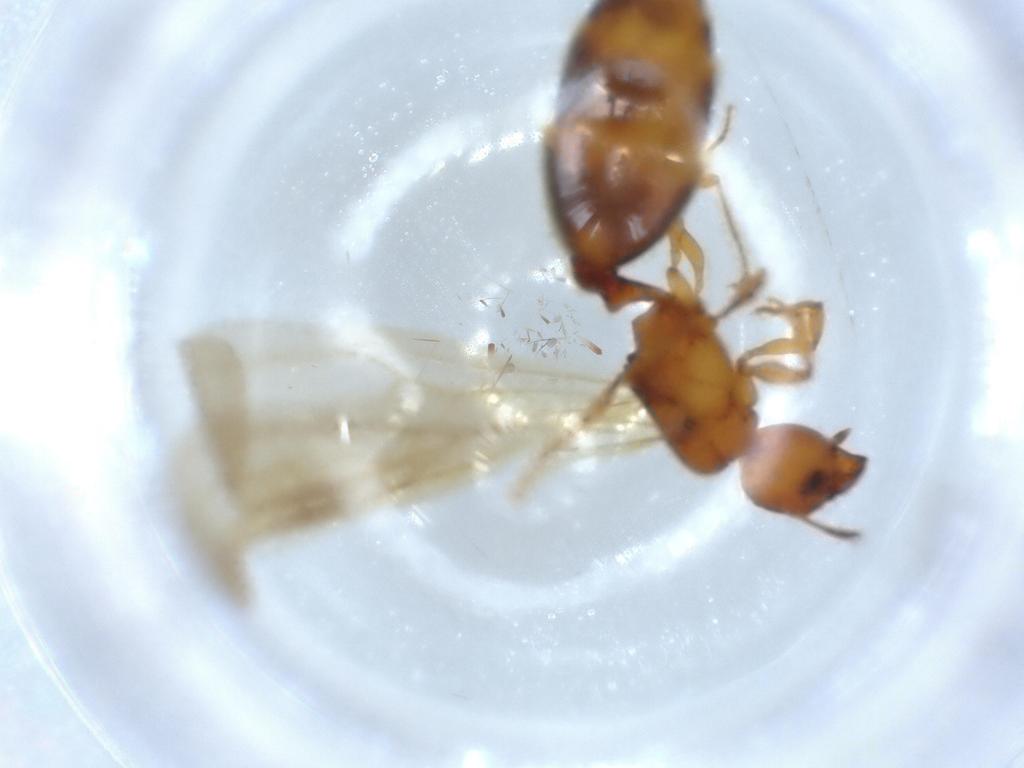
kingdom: Animalia
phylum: Arthropoda
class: Insecta
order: Hymenoptera
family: Formicidae
